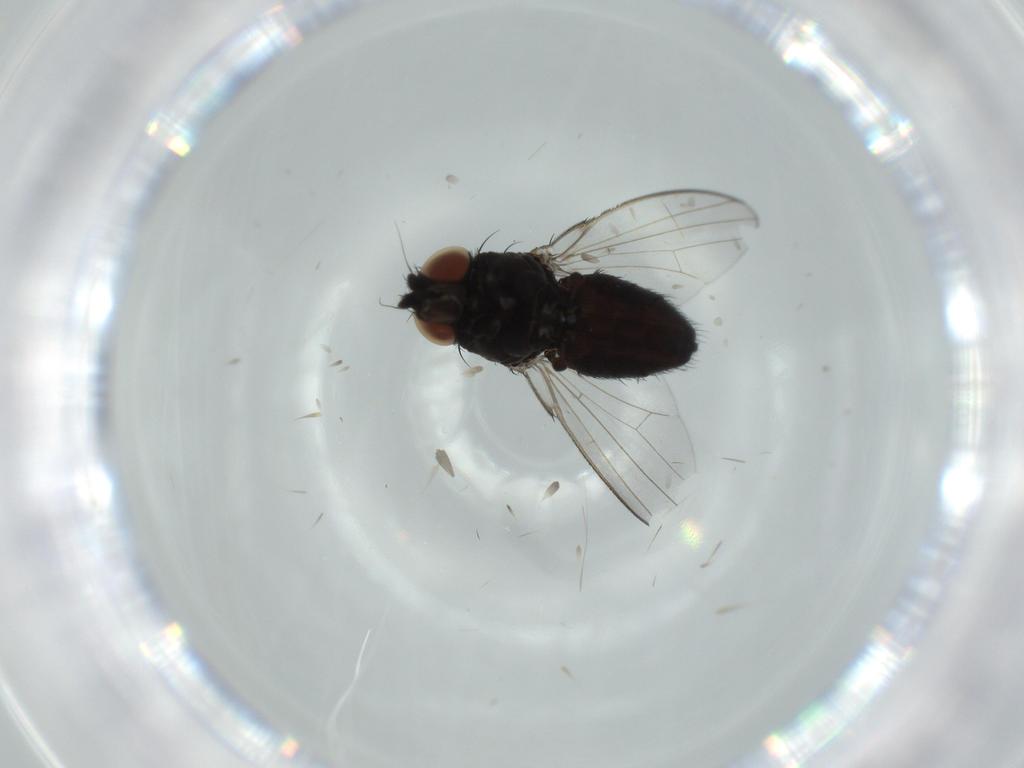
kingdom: Animalia
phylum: Arthropoda
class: Insecta
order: Diptera
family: Milichiidae
